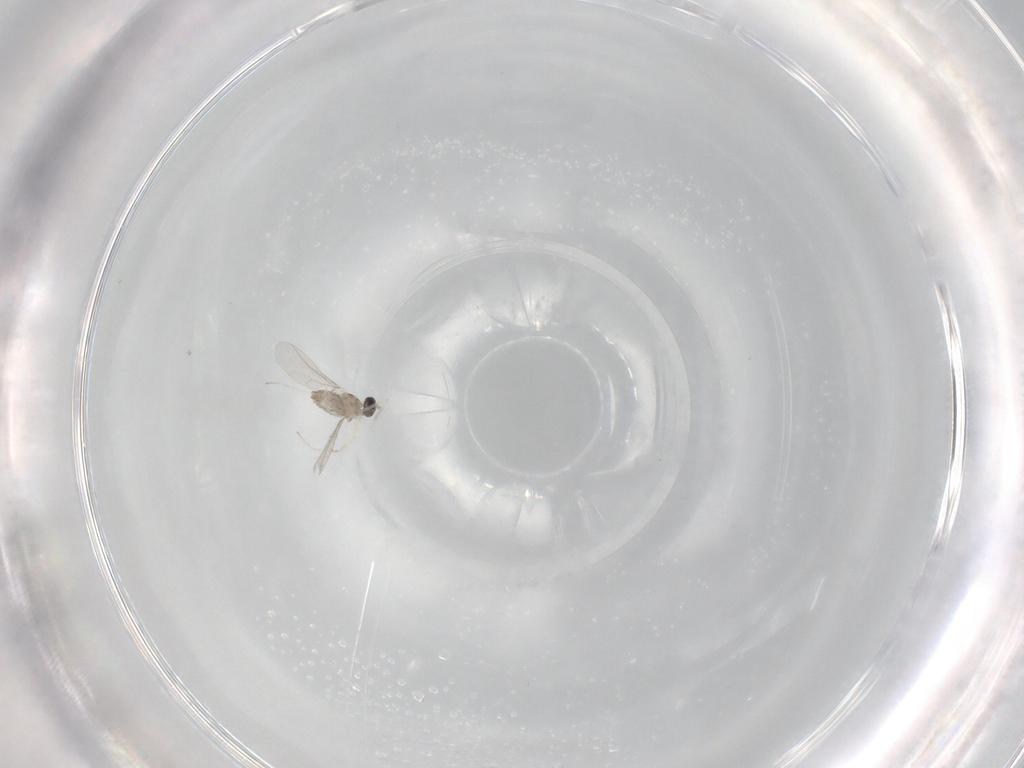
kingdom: Animalia
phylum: Arthropoda
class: Insecta
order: Diptera
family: Cecidomyiidae
